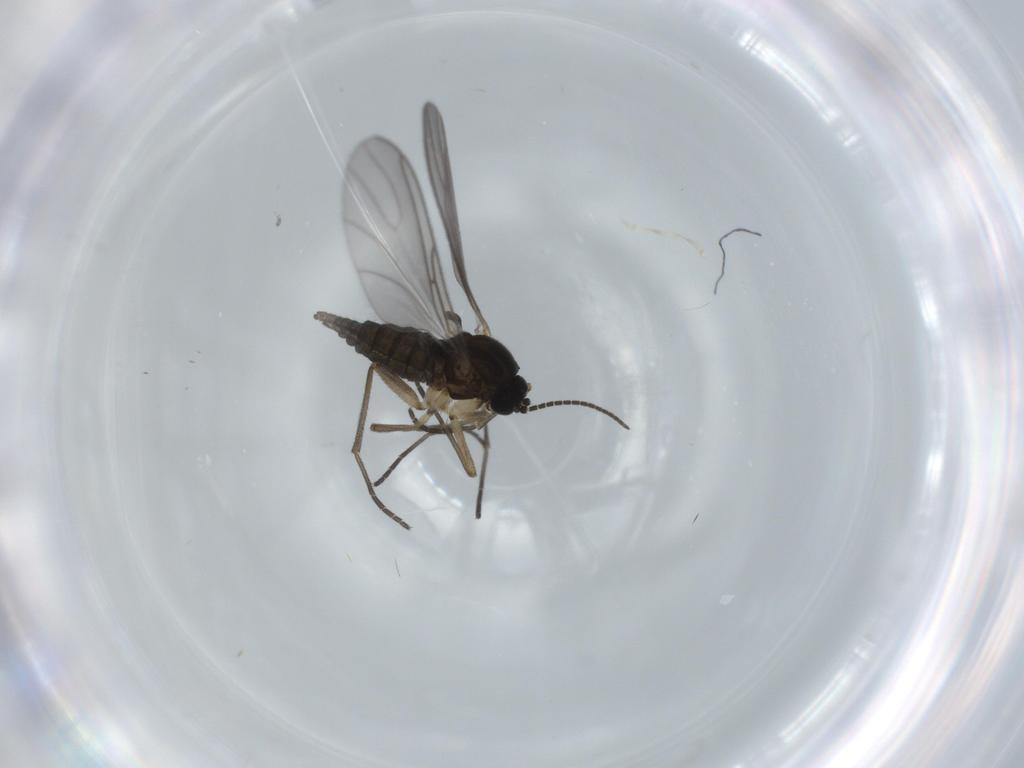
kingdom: Animalia
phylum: Arthropoda
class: Insecta
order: Diptera
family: Sciaridae
